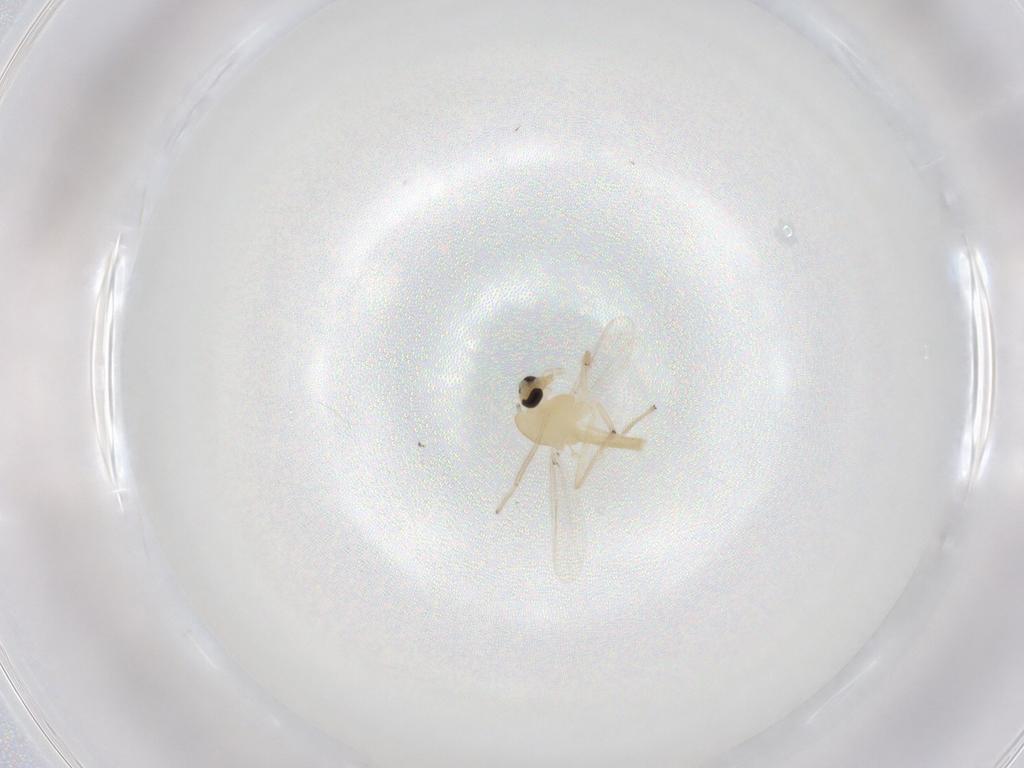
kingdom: Animalia
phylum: Arthropoda
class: Insecta
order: Diptera
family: Chironomidae
